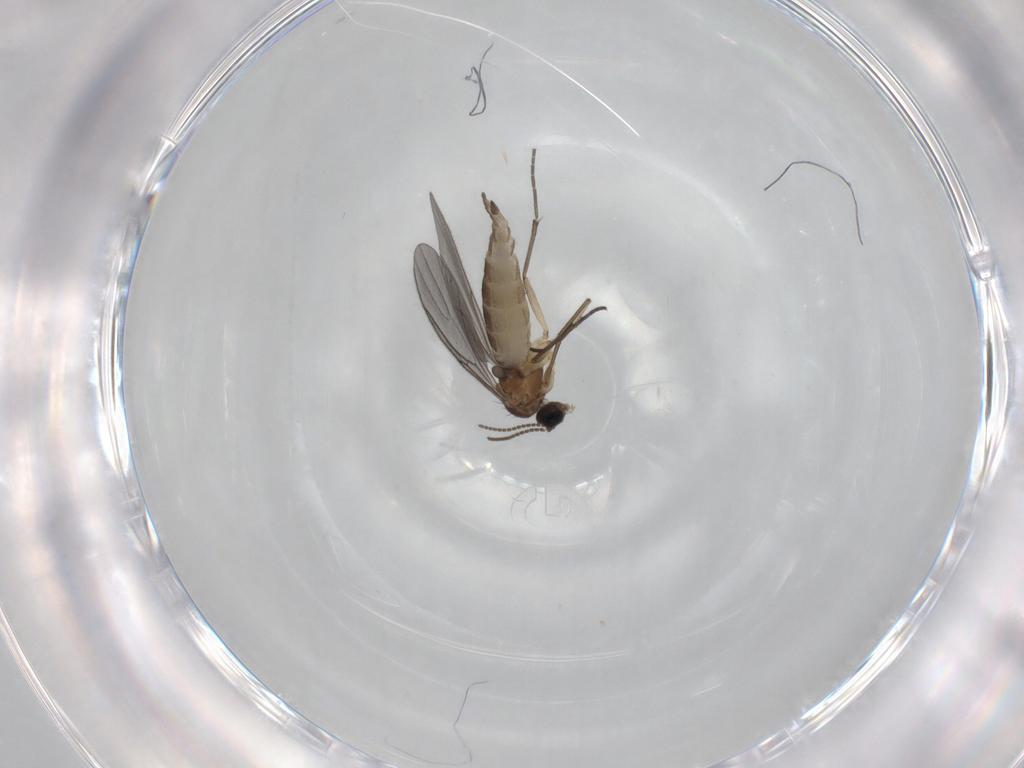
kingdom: Animalia
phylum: Arthropoda
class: Insecta
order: Diptera
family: Sciaridae
